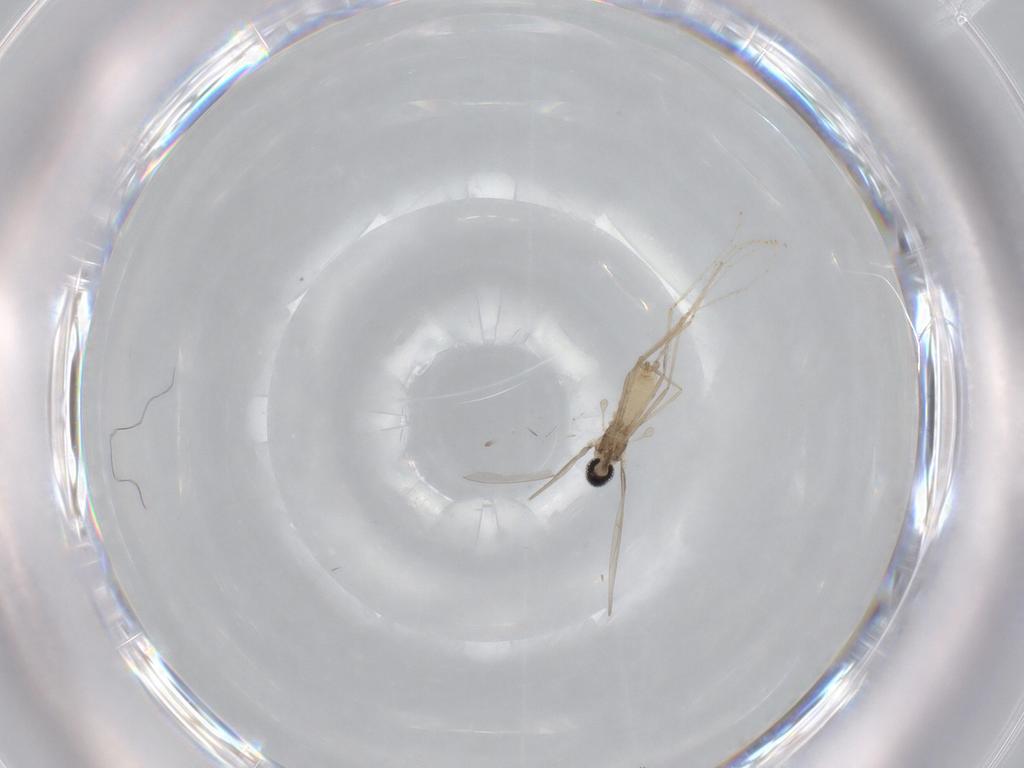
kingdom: Animalia
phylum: Arthropoda
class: Insecta
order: Diptera
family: Cecidomyiidae
